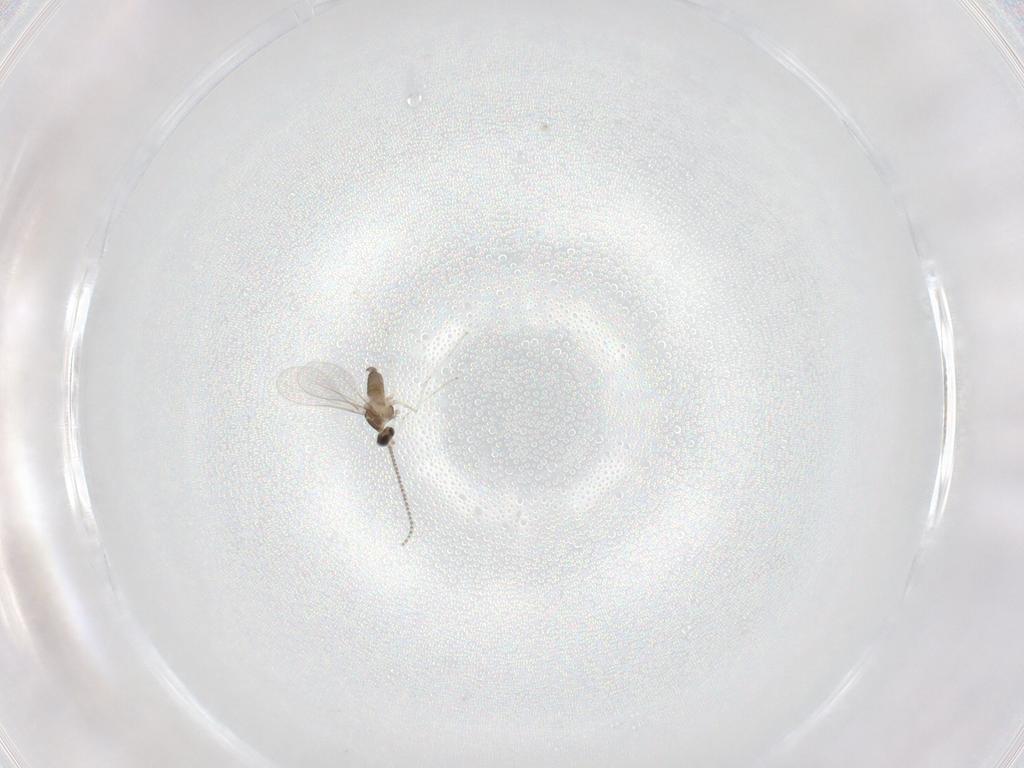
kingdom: Animalia
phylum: Arthropoda
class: Insecta
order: Diptera
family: Cecidomyiidae
